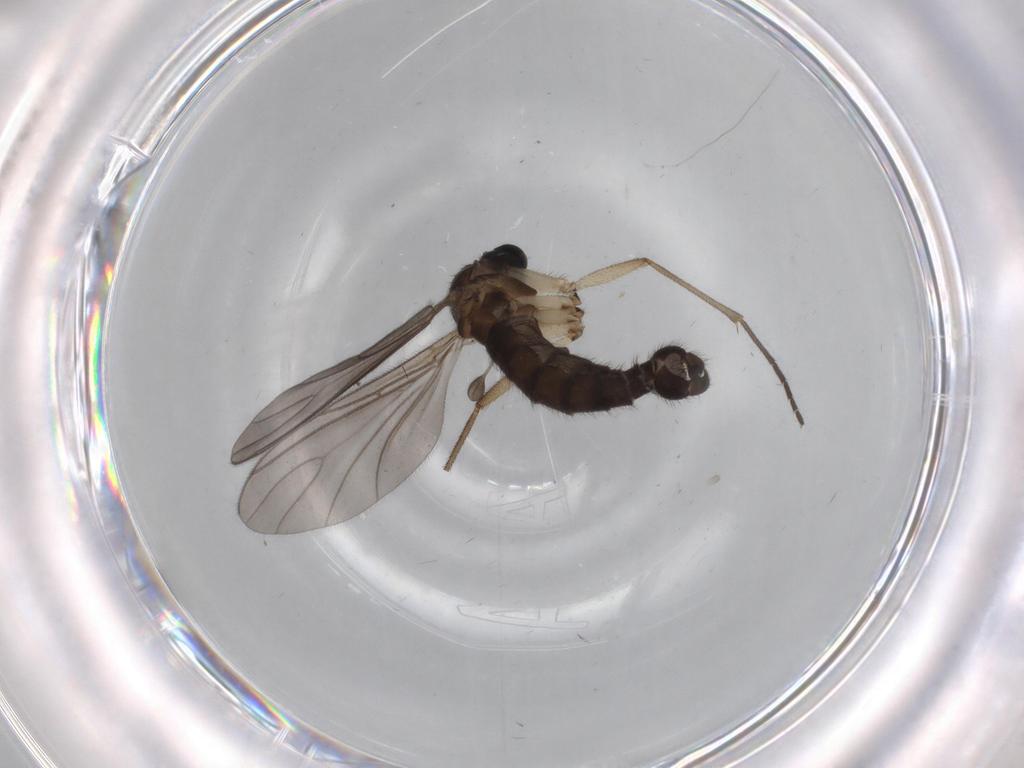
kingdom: Animalia
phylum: Arthropoda
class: Insecta
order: Diptera
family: Sciaridae
